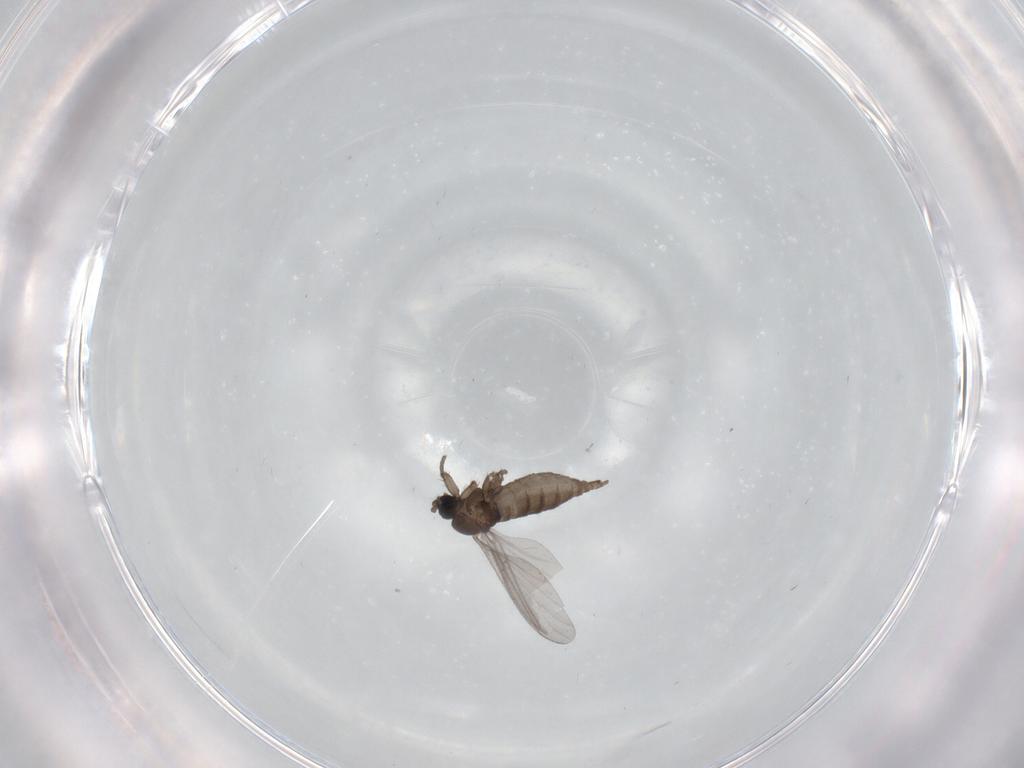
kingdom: Animalia
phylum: Arthropoda
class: Insecta
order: Diptera
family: Sciaridae
